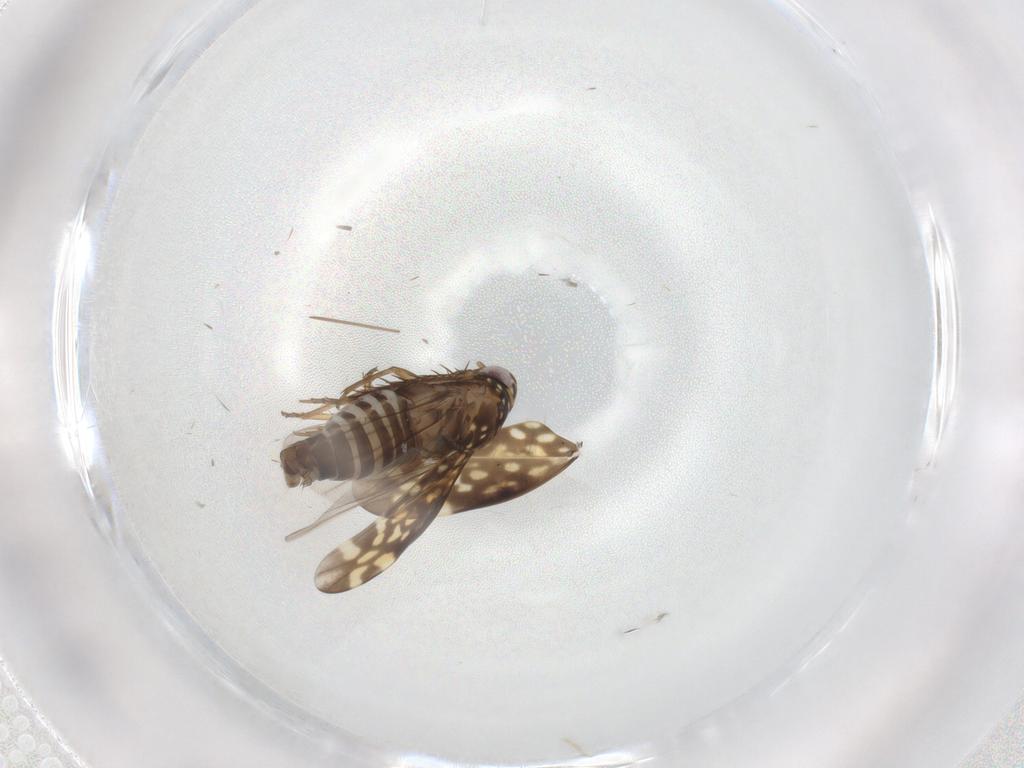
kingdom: Animalia
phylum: Arthropoda
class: Insecta
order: Hemiptera
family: Cicadellidae
